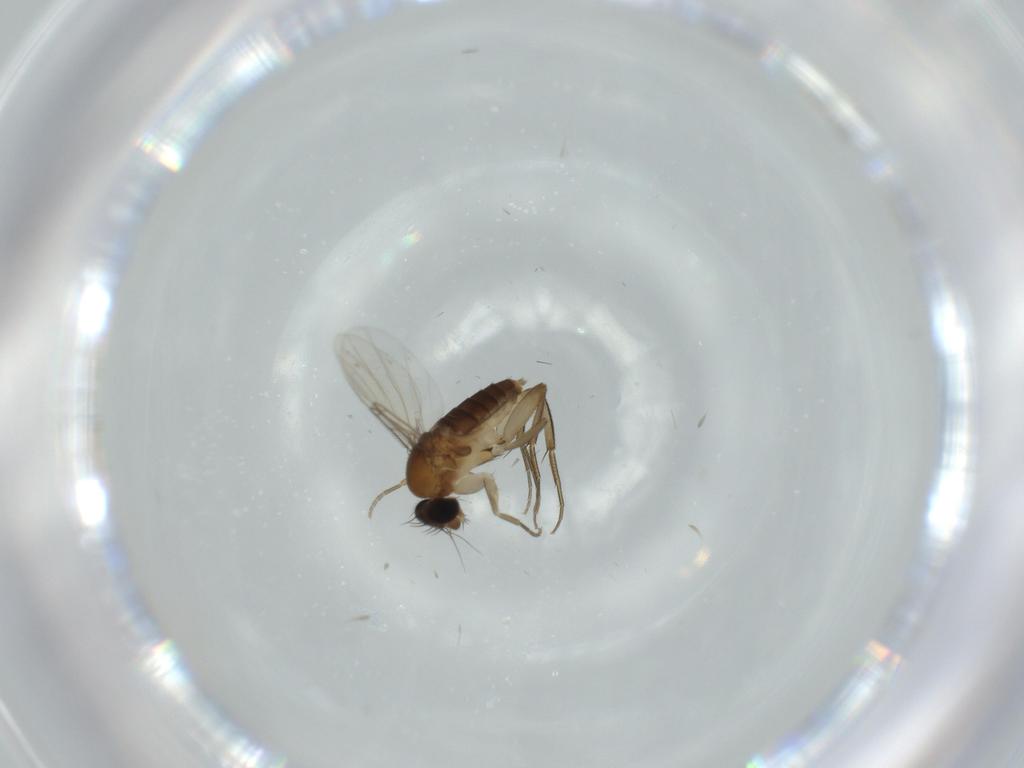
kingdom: Animalia
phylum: Arthropoda
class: Insecta
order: Diptera
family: Phoridae
